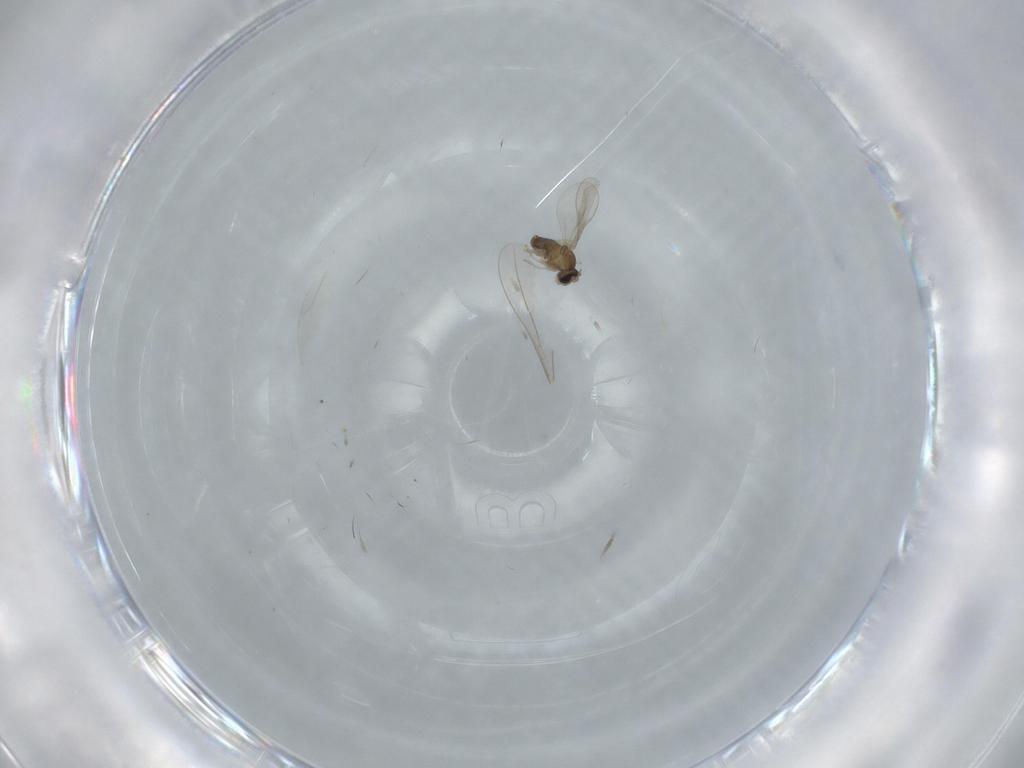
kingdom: Animalia
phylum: Arthropoda
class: Insecta
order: Diptera
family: Cecidomyiidae
